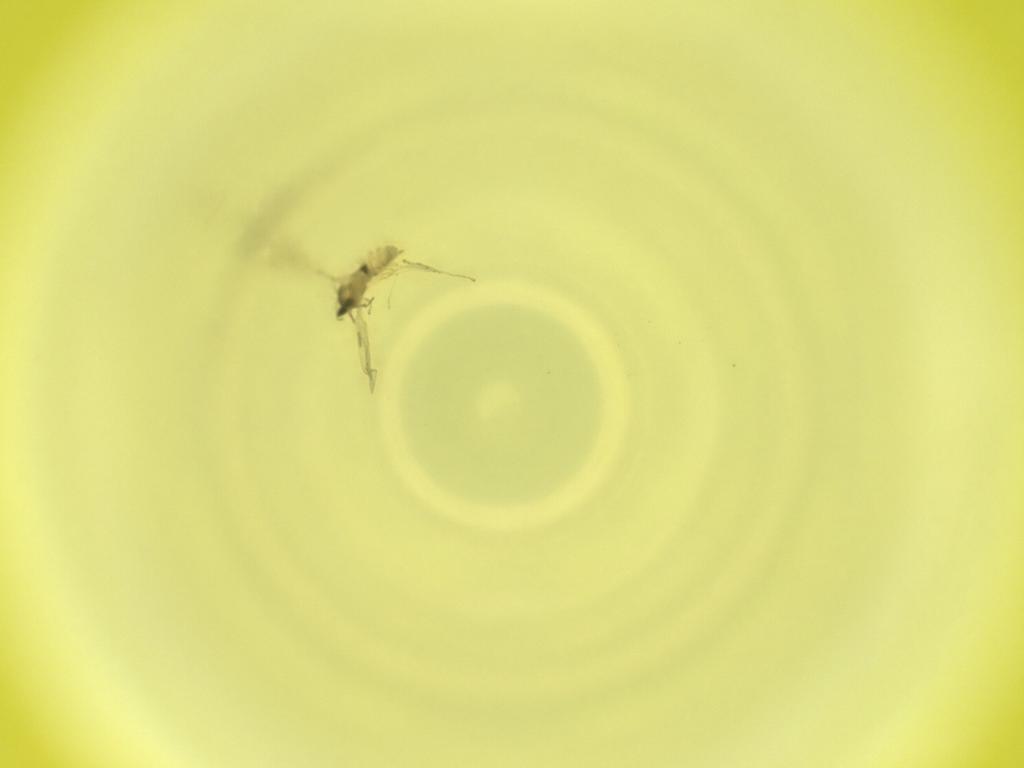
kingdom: Animalia
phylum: Arthropoda
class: Insecta
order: Diptera
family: Cecidomyiidae
